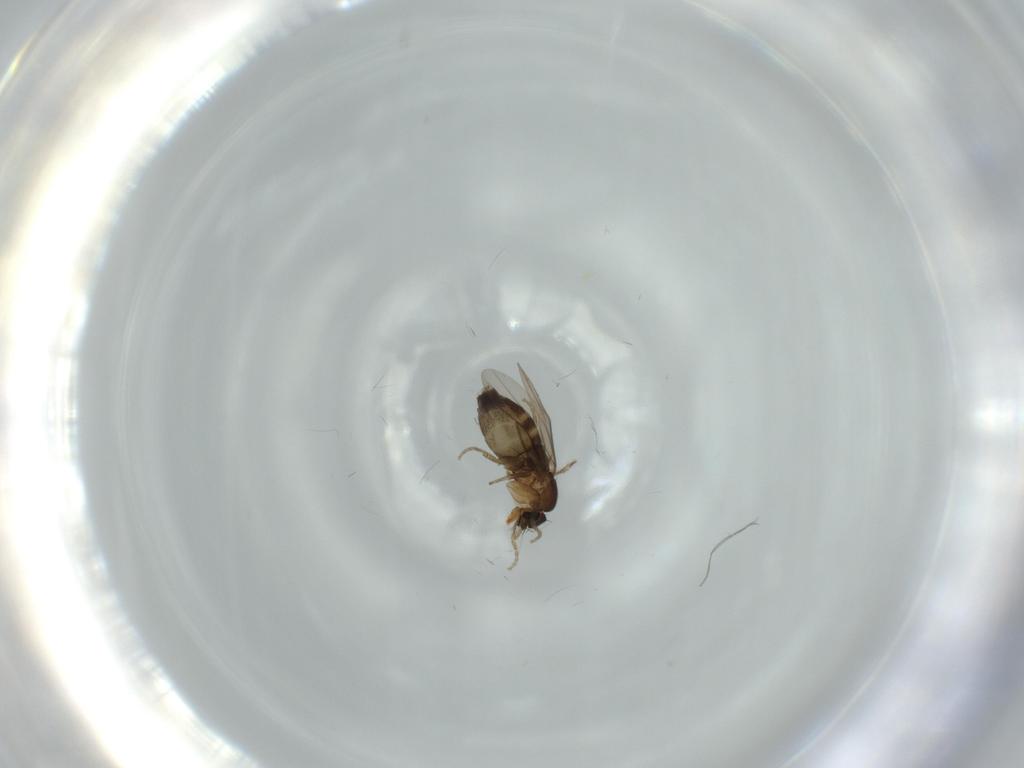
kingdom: Animalia
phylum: Arthropoda
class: Insecta
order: Diptera
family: Phoridae
